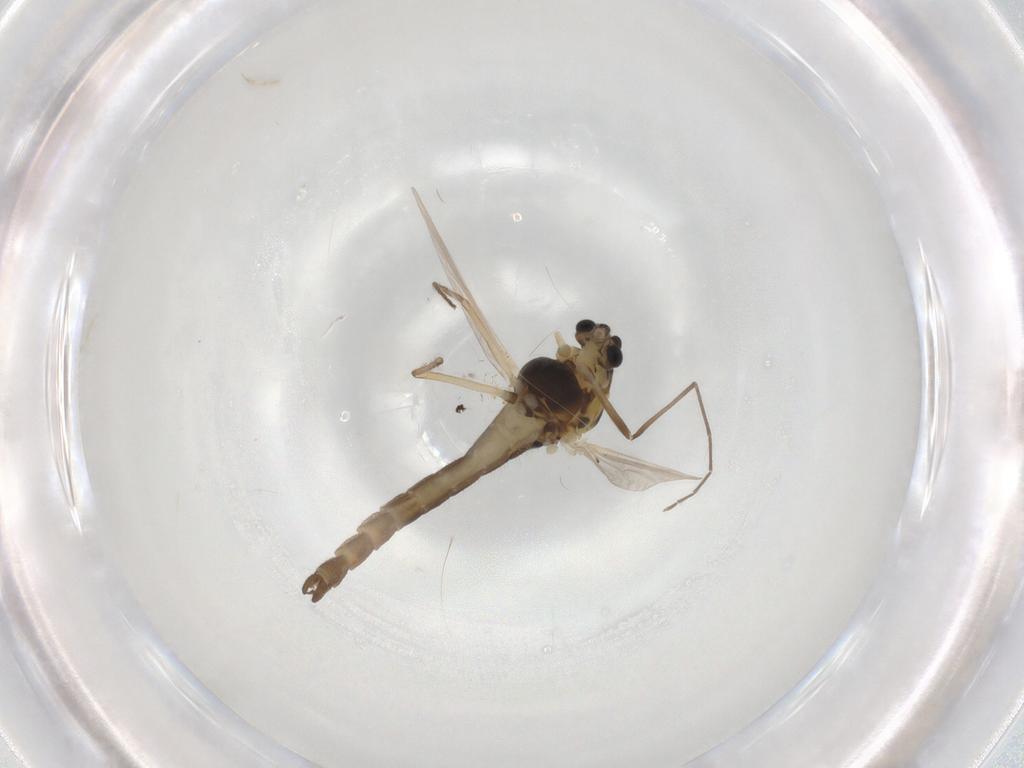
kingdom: Animalia
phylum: Arthropoda
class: Insecta
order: Diptera
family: Chironomidae
